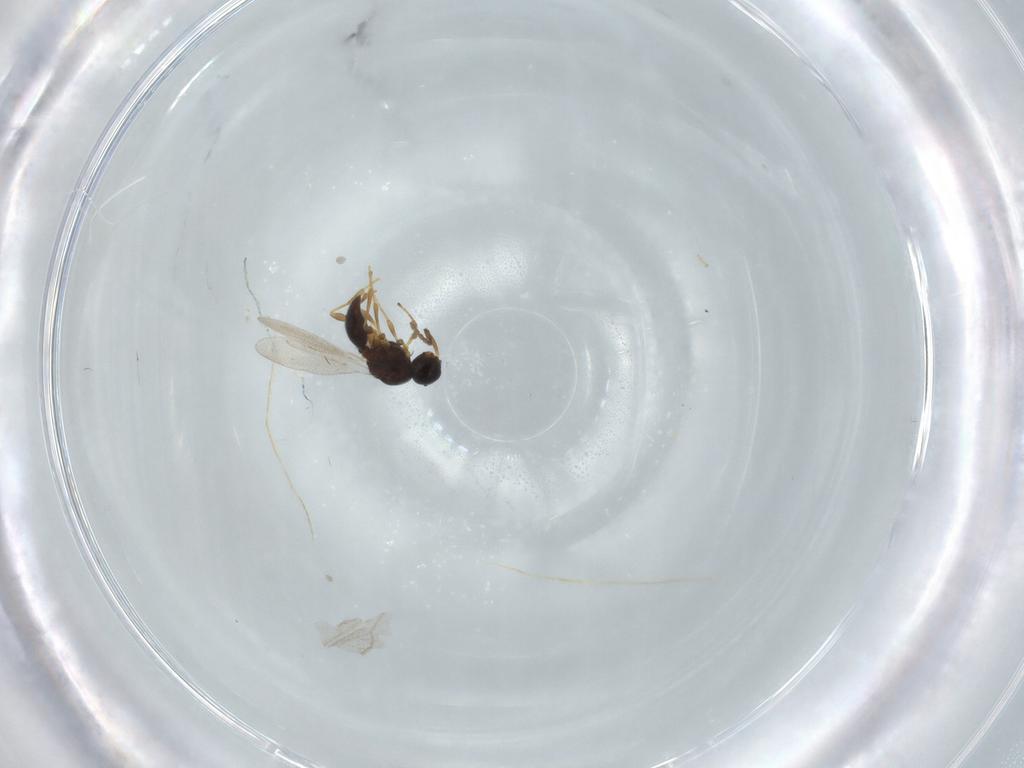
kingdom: Animalia
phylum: Arthropoda
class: Insecta
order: Diptera
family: Mythicomyiidae
